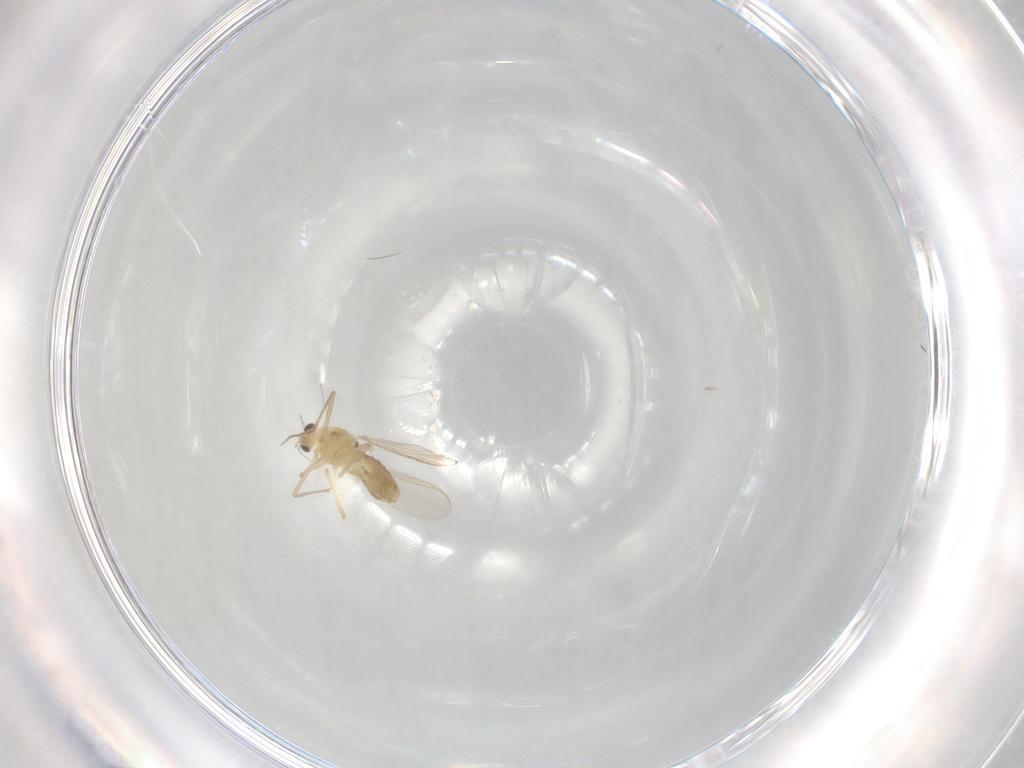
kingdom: Animalia
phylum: Arthropoda
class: Insecta
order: Diptera
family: Chironomidae
